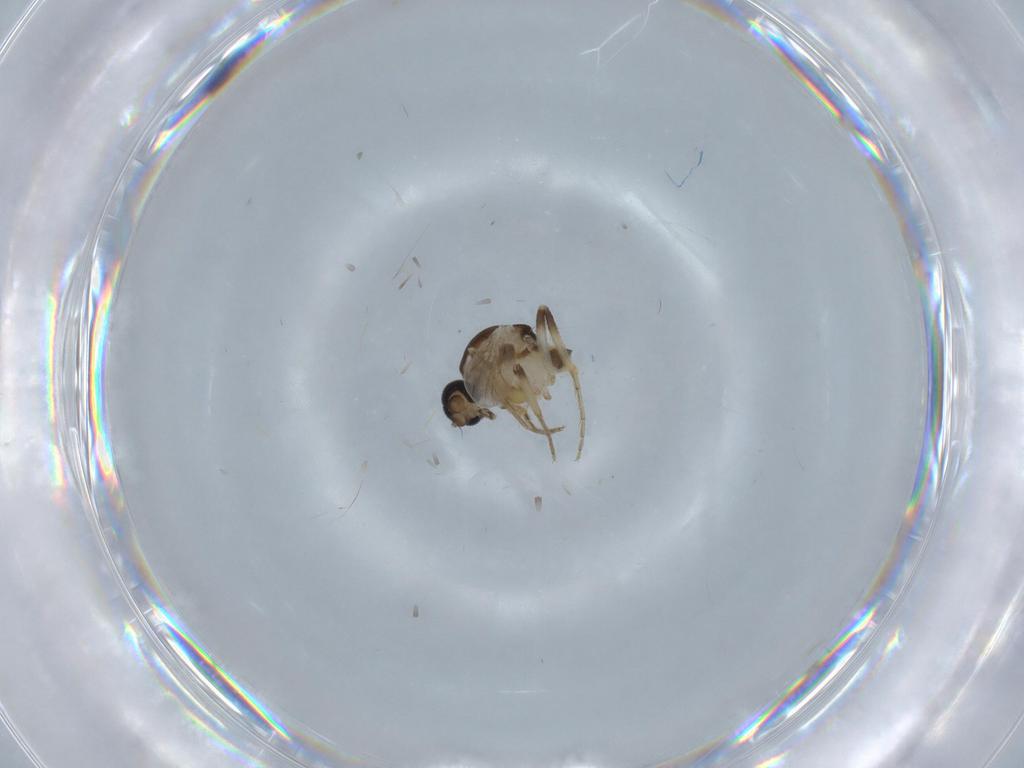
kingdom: Animalia
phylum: Arthropoda
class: Insecta
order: Diptera
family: Ceratopogonidae
